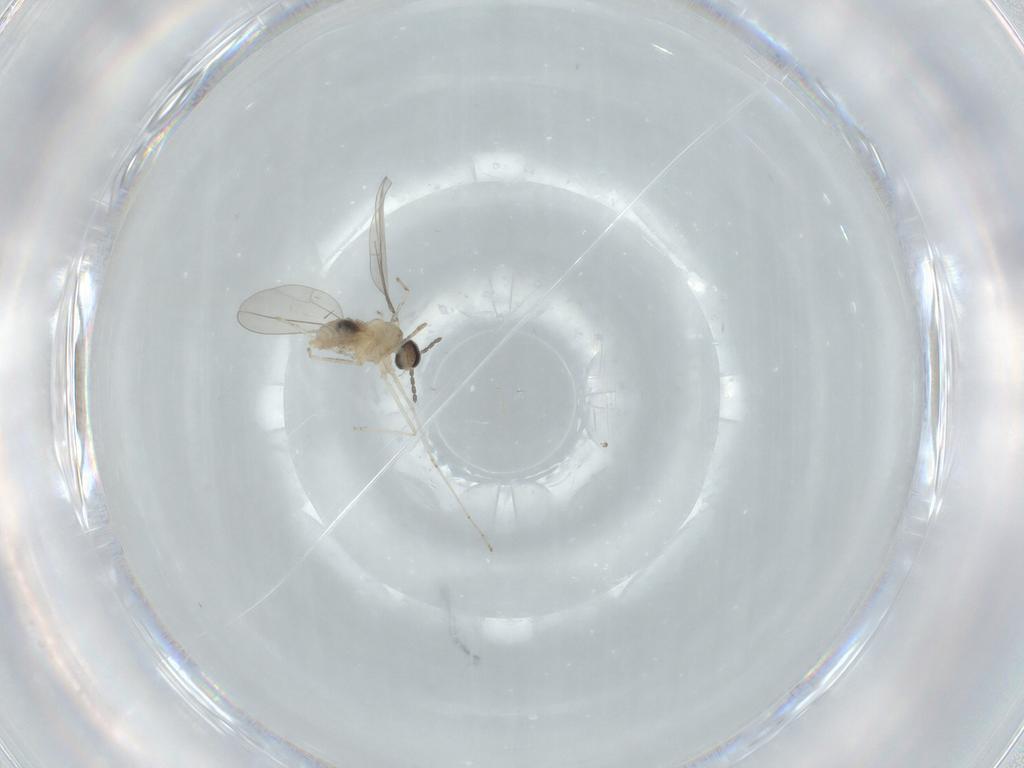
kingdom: Animalia
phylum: Arthropoda
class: Insecta
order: Diptera
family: Cecidomyiidae
